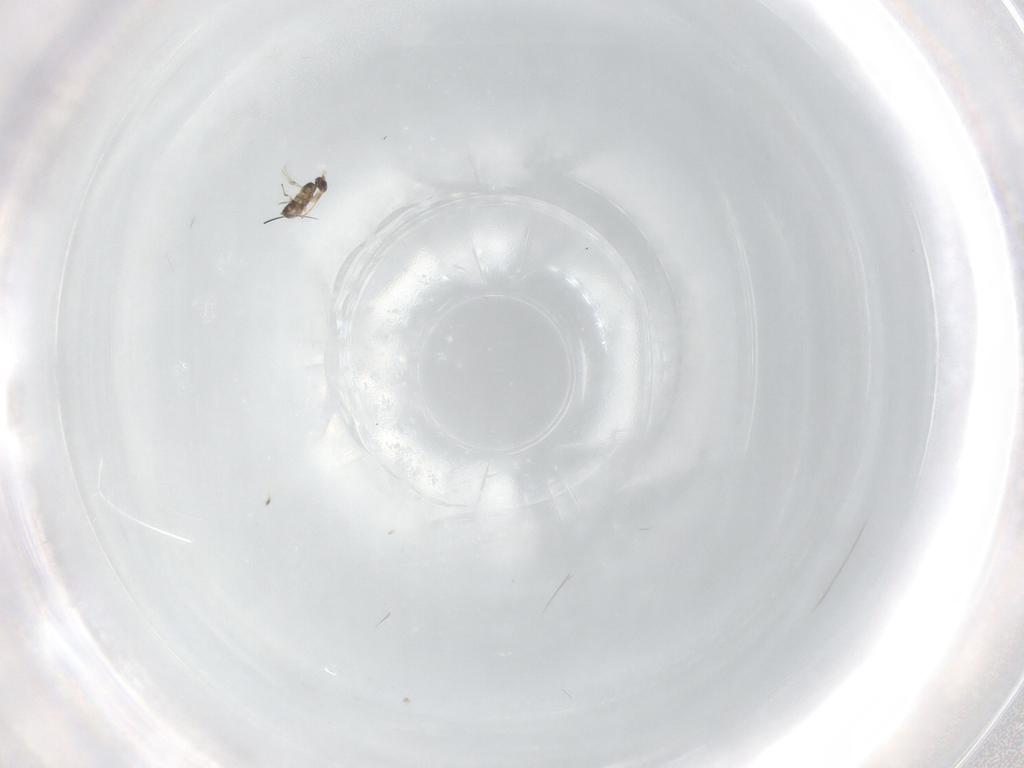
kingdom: Animalia
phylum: Arthropoda
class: Insecta
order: Hymenoptera
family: Mymaridae
